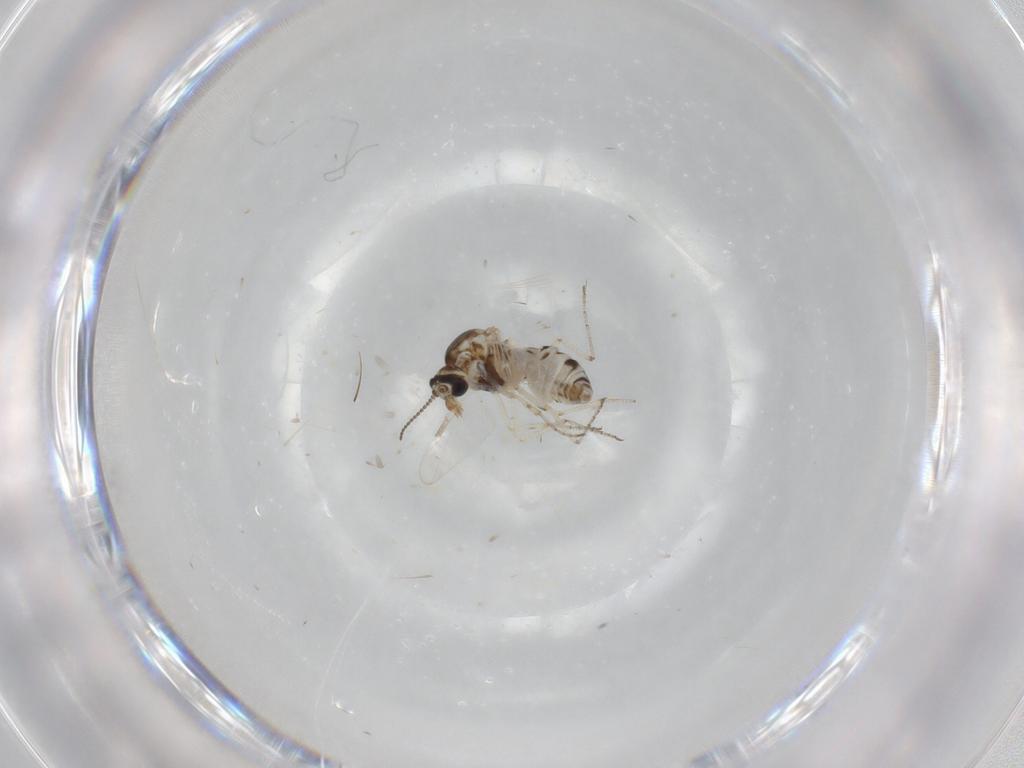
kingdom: Animalia
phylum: Arthropoda
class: Insecta
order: Diptera
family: Ceratopogonidae
